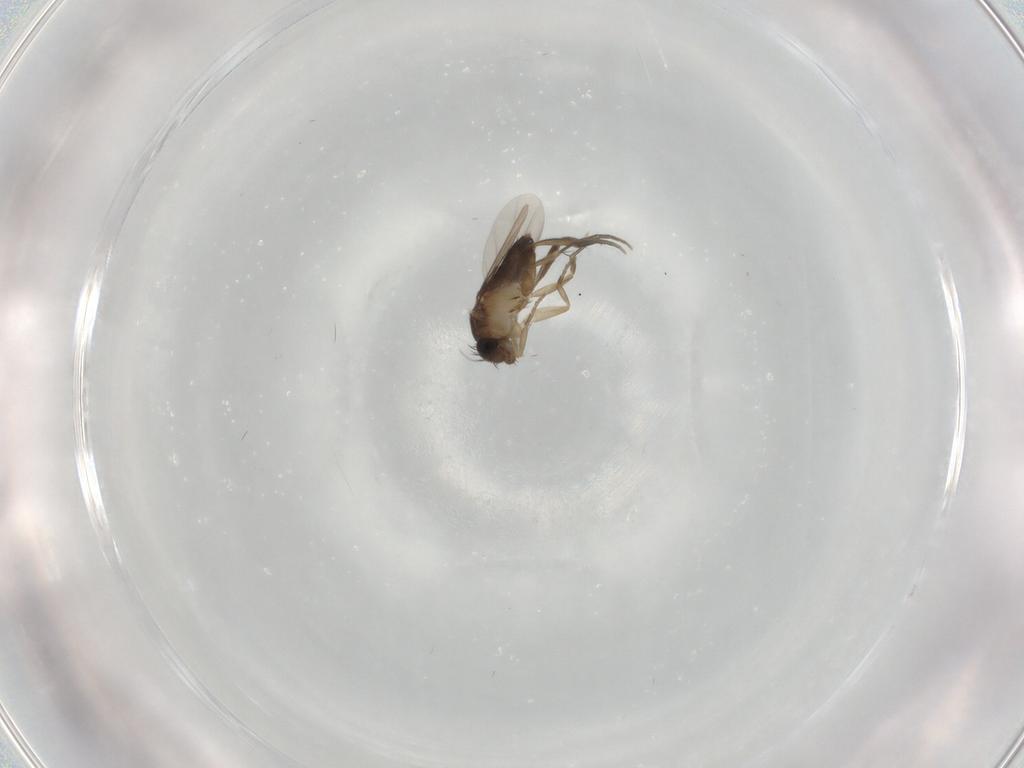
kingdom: Animalia
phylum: Arthropoda
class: Insecta
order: Diptera
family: Phoridae
